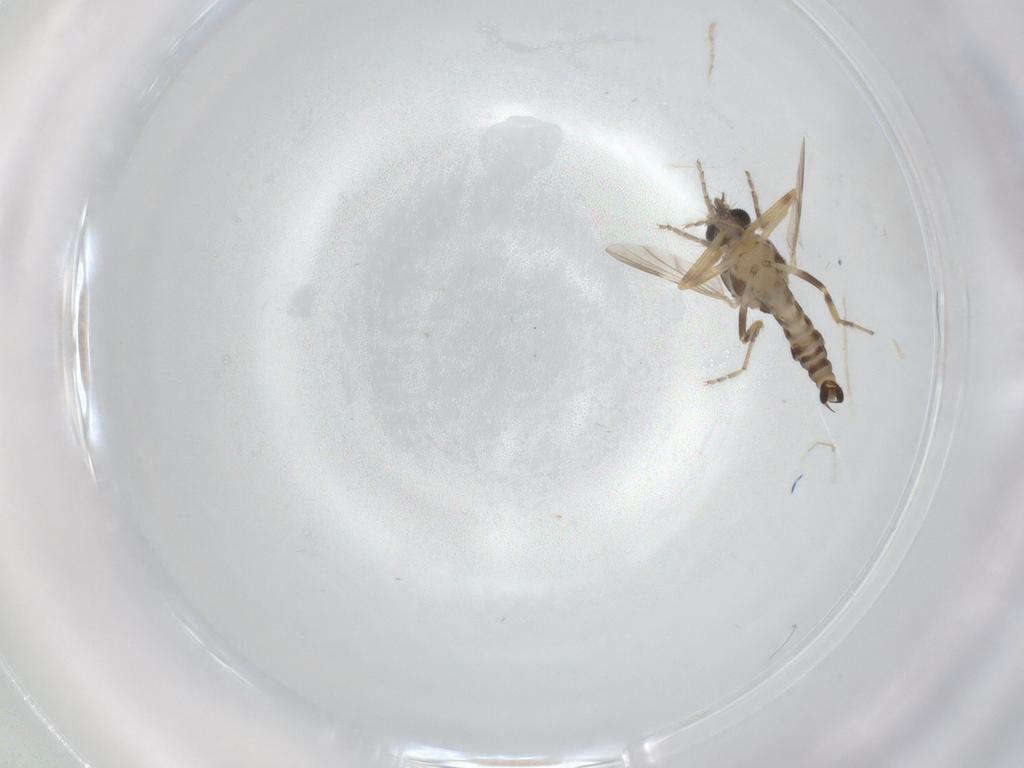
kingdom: Animalia
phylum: Arthropoda
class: Insecta
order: Diptera
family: Ceratopogonidae
